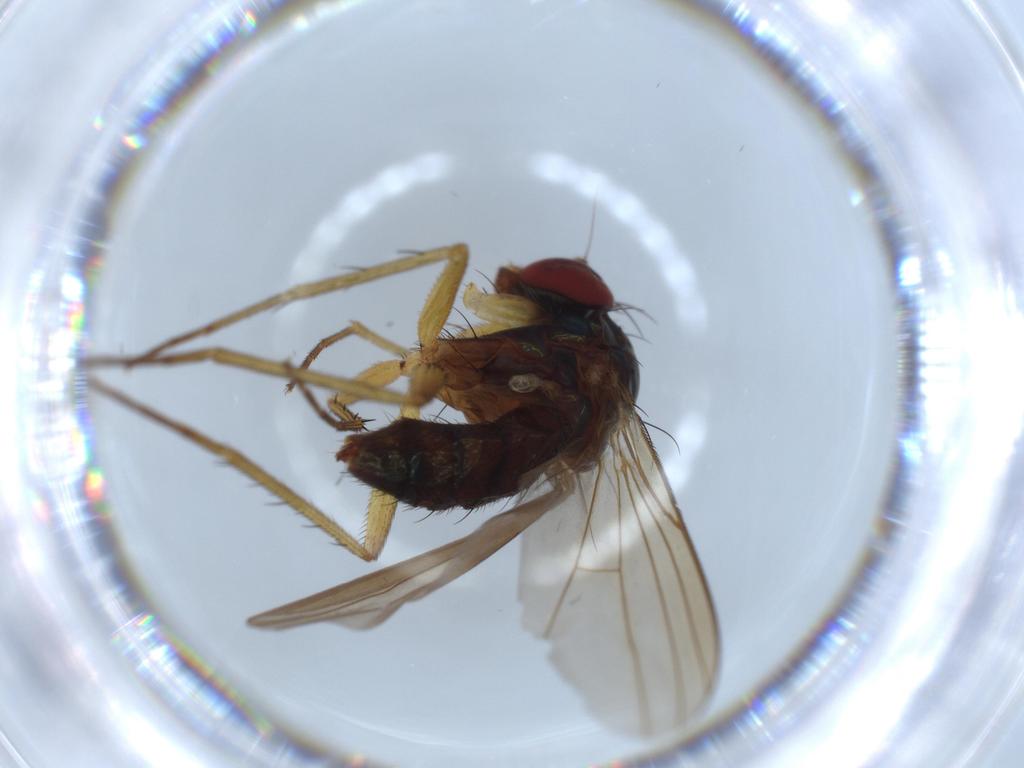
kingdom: Animalia
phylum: Arthropoda
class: Insecta
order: Diptera
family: Dolichopodidae
